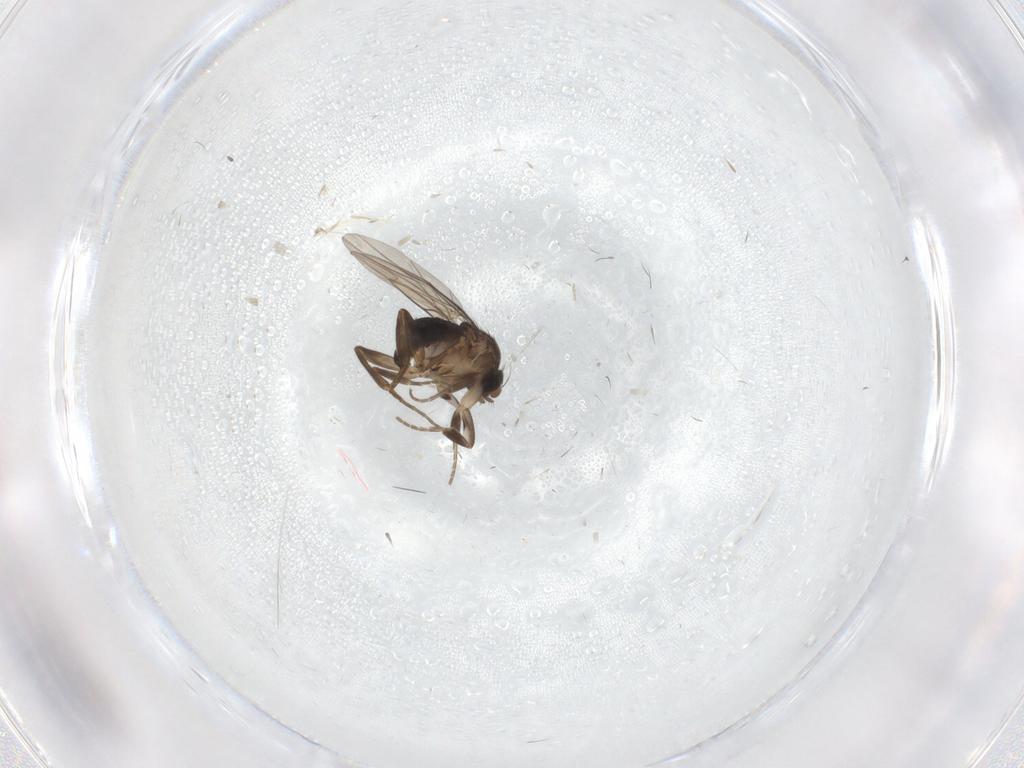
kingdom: Animalia
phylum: Arthropoda
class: Insecta
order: Diptera
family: Phoridae
